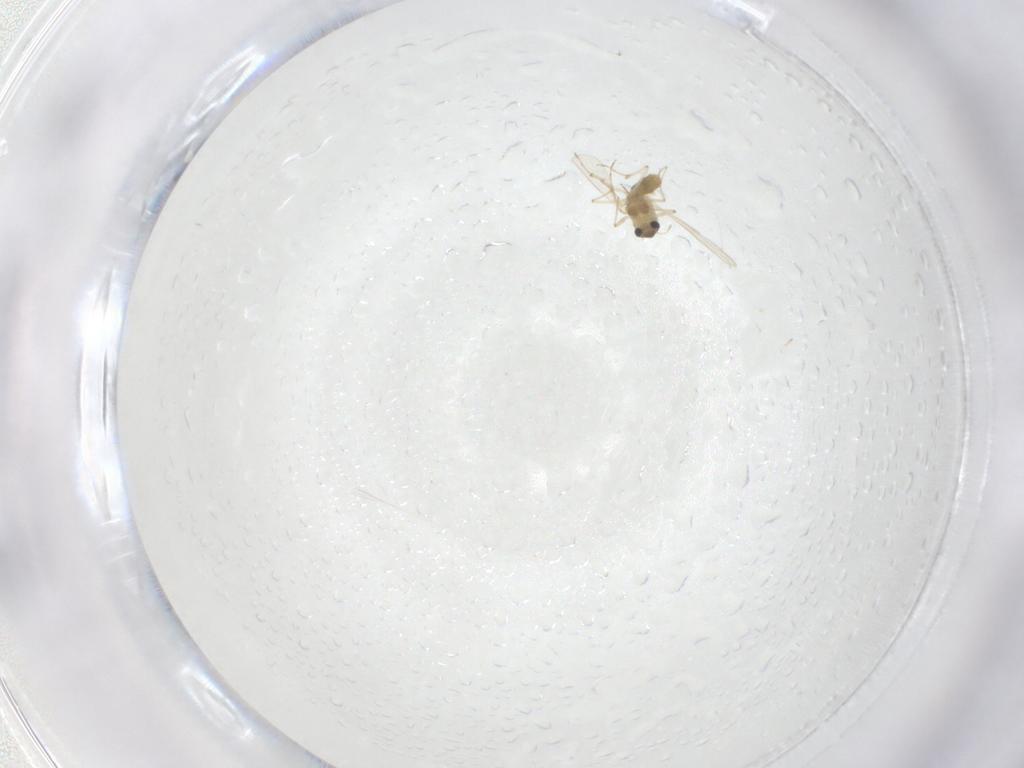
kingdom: Animalia
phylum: Arthropoda
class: Insecta
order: Diptera
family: Chironomidae
